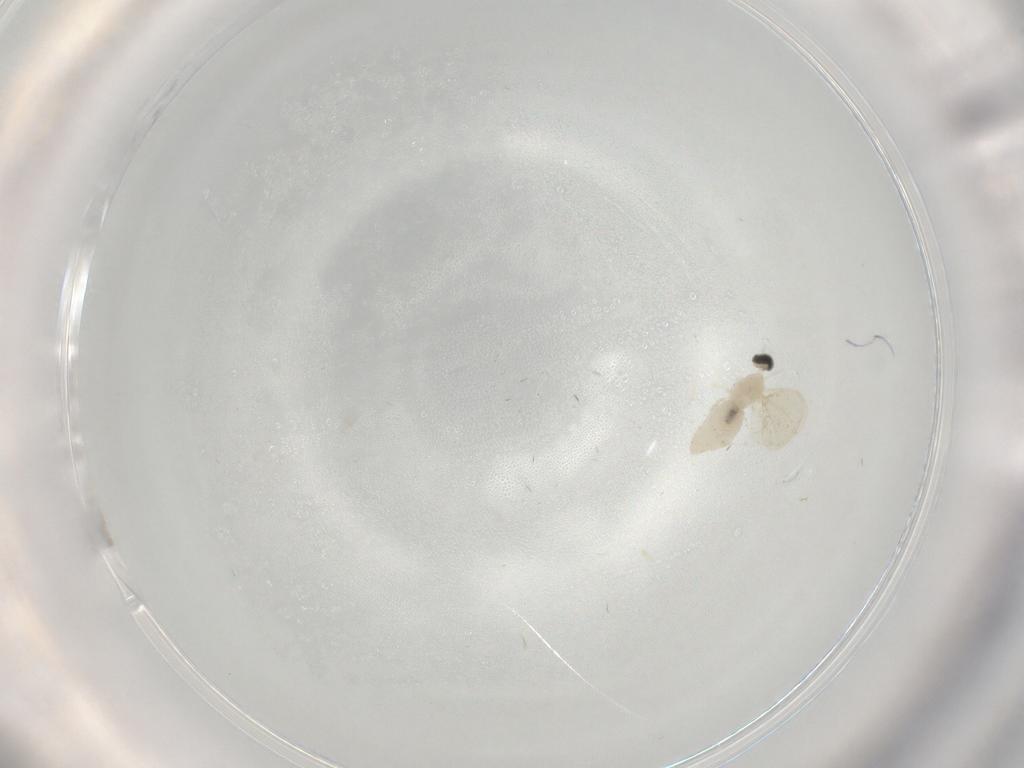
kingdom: Animalia
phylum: Arthropoda
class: Insecta
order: Diptera
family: Cecidomyiidae
